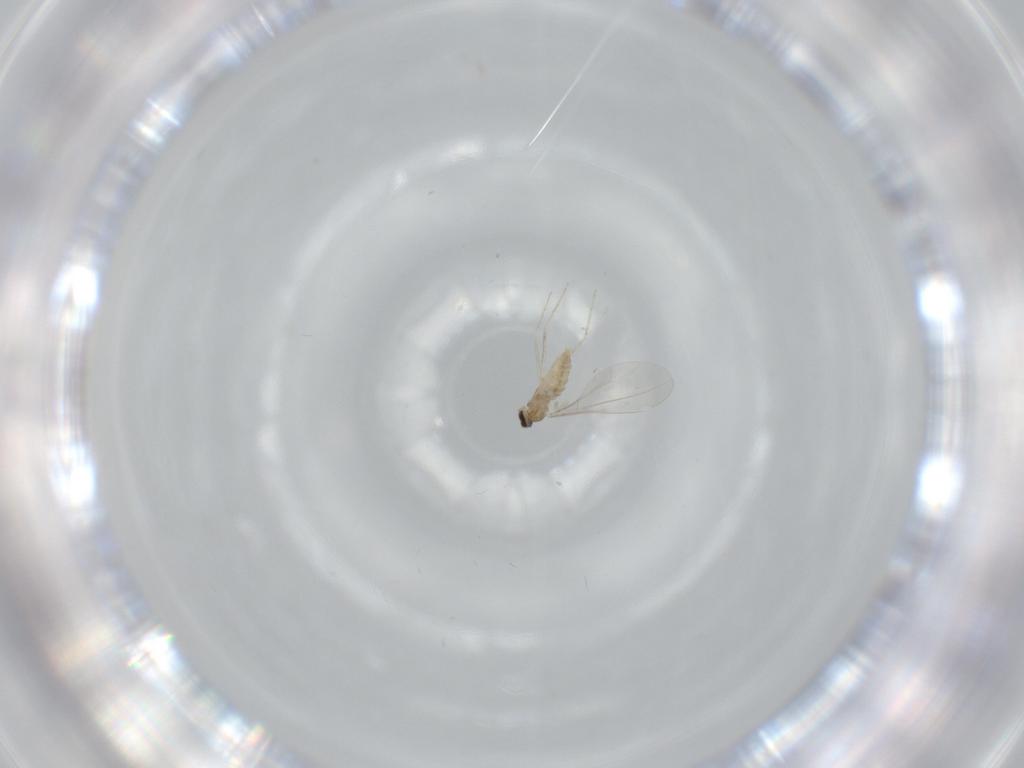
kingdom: Animalia
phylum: Arthropoda
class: Insecta
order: Diptera
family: Cecidomyiidae
